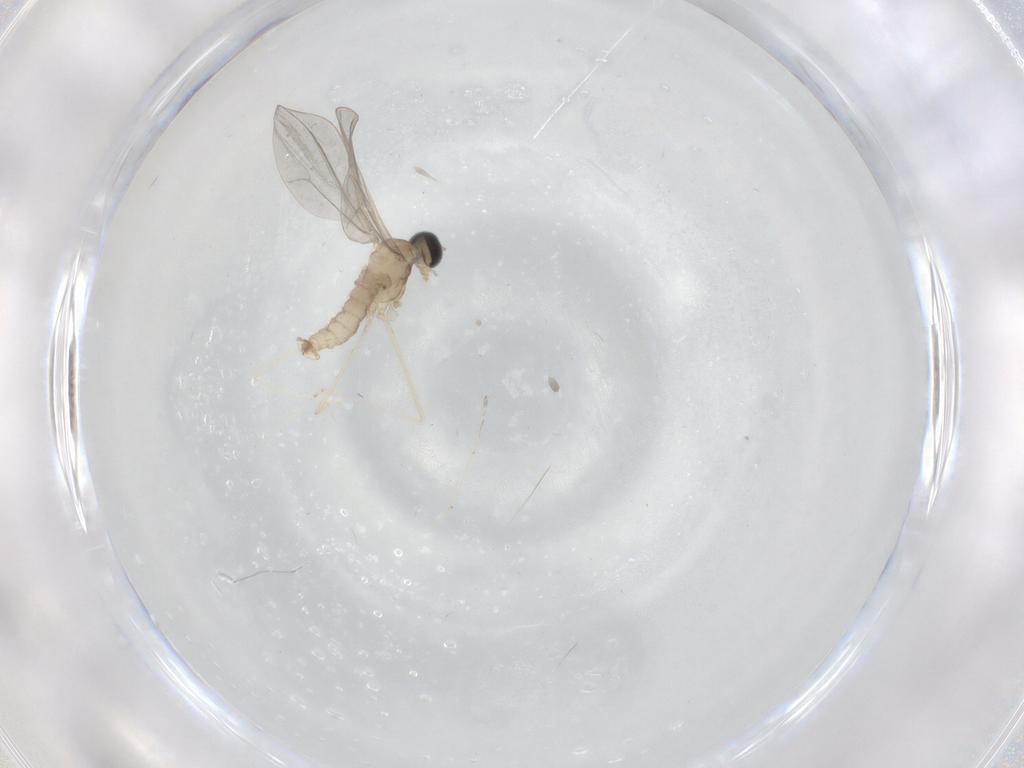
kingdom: Animalia
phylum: Arthropoda
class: Insecta
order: Diptera
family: Cecidomyiidae
